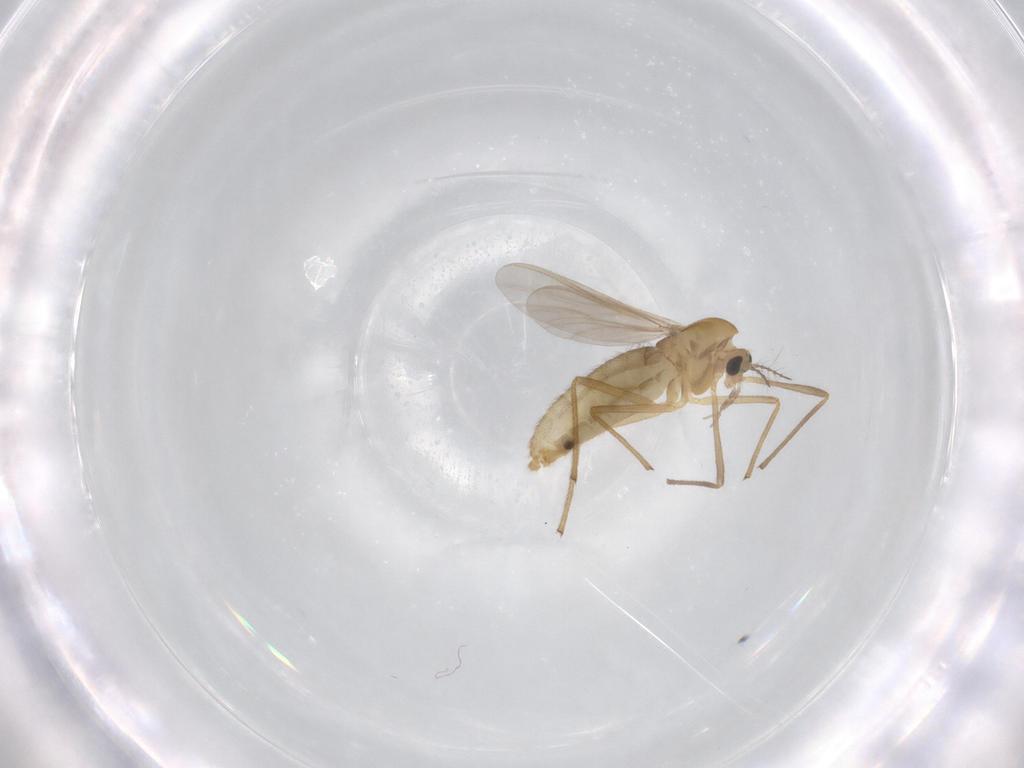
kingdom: Animalia
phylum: Arthropoda
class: Insecta
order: Diptera
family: Chironomidae
